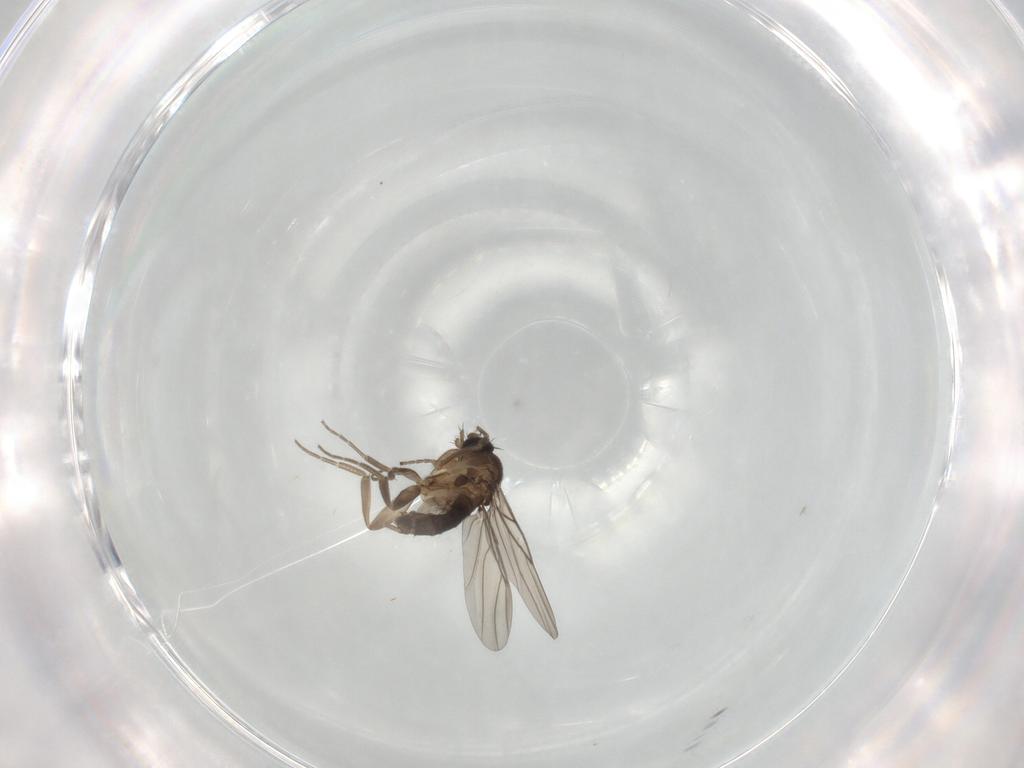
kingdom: Animalia
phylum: Arthropoda
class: Insecta
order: Diptera
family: Phoridae
